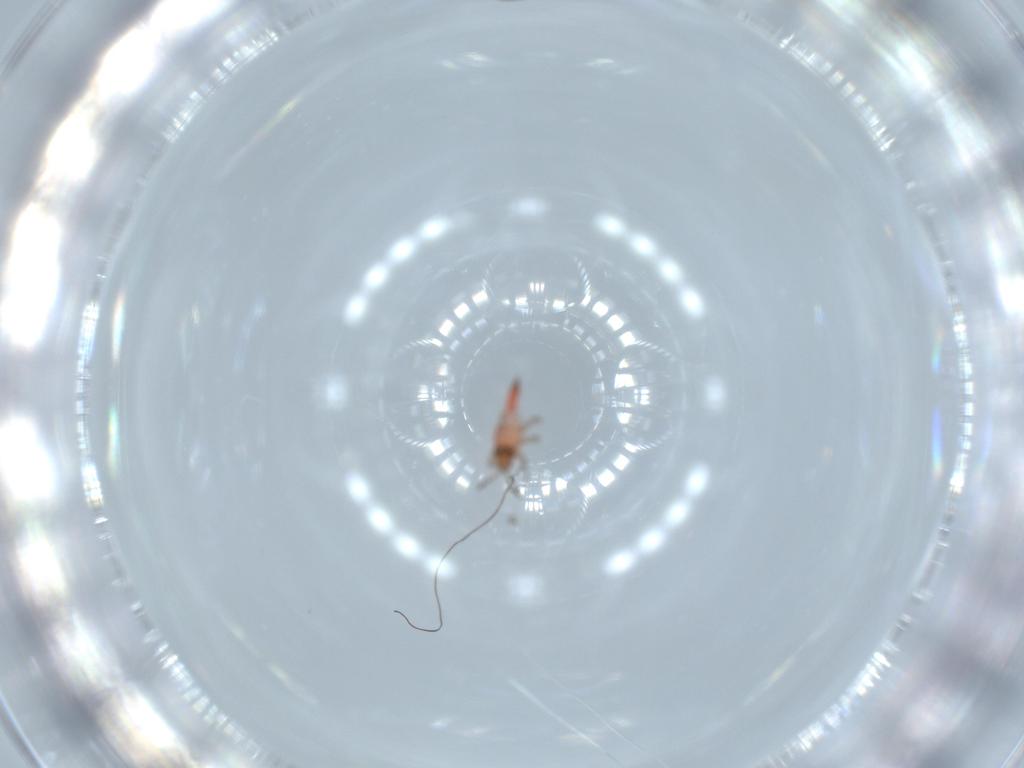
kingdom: Animalia
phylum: Arthropoda
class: Insecta
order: Thysanoptera
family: Phlaeothripidae
